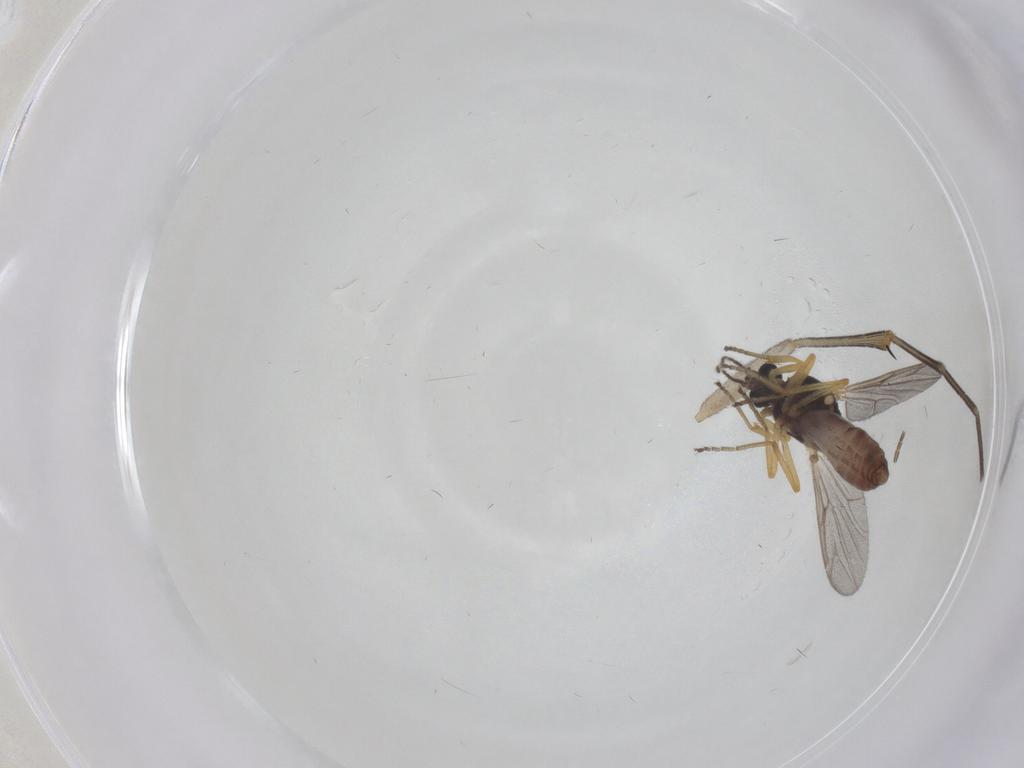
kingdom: Animalia
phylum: Arthropoda
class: Insecta
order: Diptera
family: Ceratopogonidae
